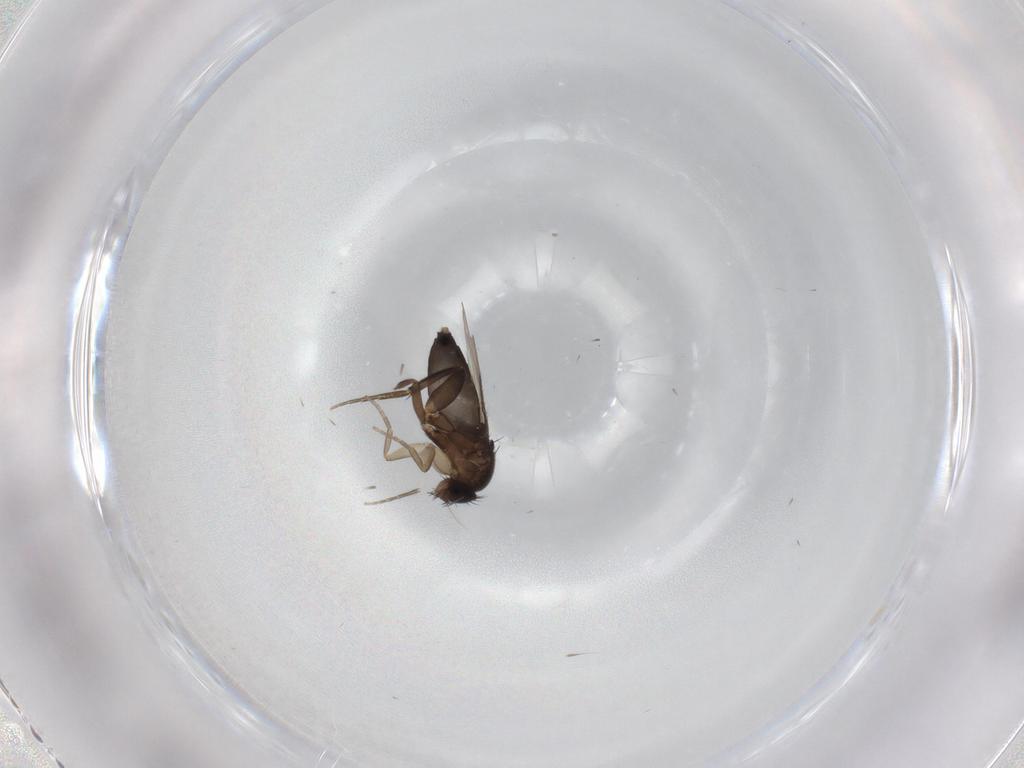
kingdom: Animalia
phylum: Arthropoda
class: Insecta
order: Diptera
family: Phoridae
